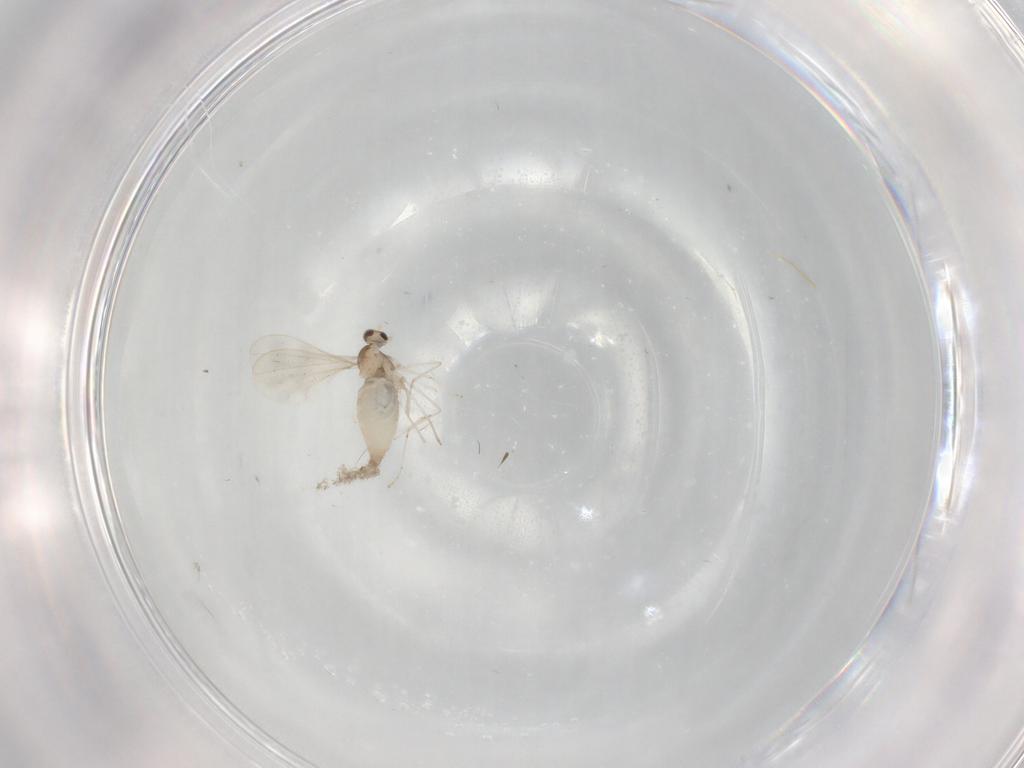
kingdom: Animalia
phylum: Arthropoda
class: Insecta
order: Diptera
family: Cecidomyiidae
